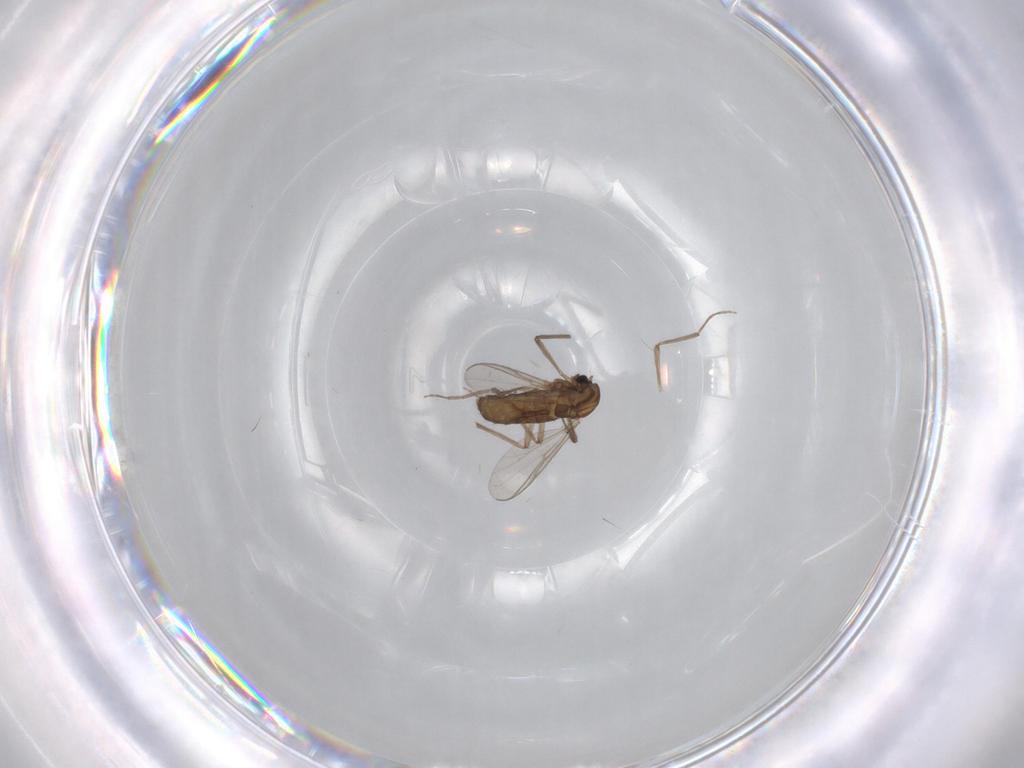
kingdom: Animalia
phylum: Arthropoda
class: Insecta
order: Diptera
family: Chironomidae
